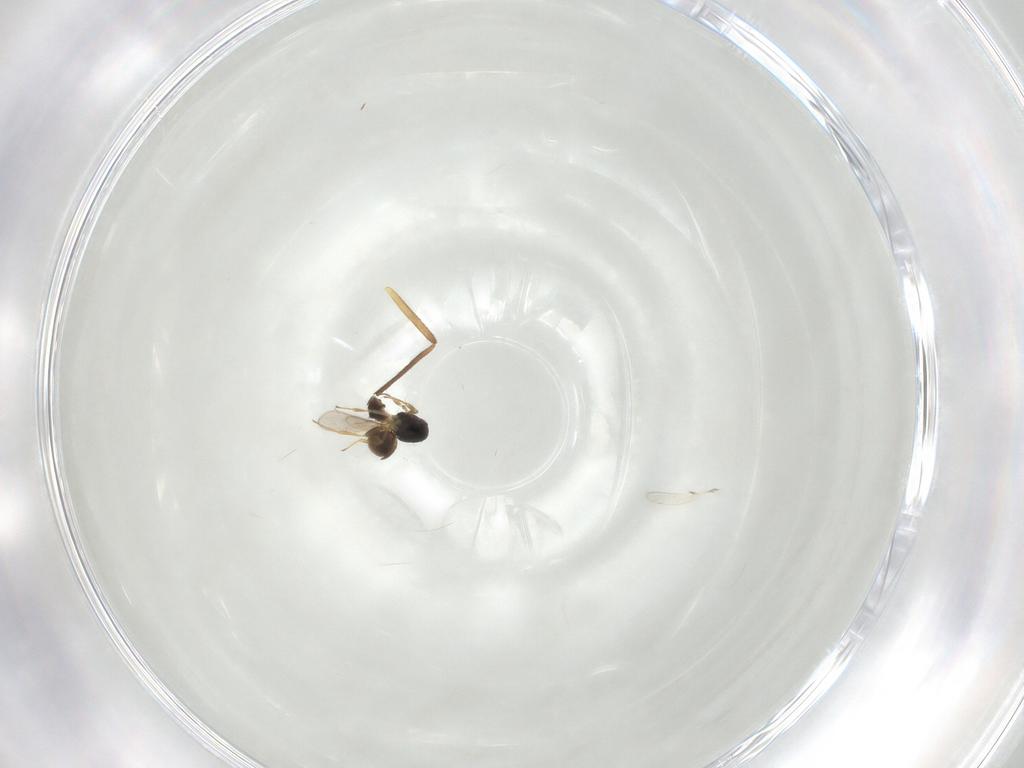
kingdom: Animalia
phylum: Arthropoda
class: Insecta
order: Hymenoptera
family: Scelionidae
